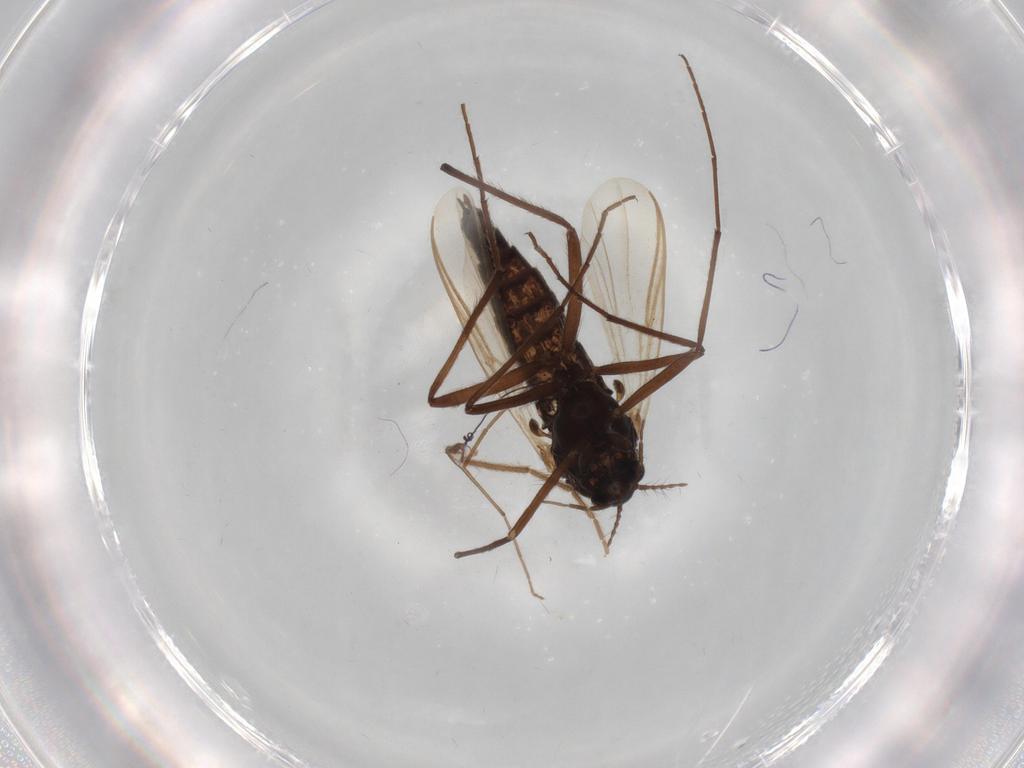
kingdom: Animalia
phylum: Arthropoda
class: Insecta
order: Diptera
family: Chironomidae
